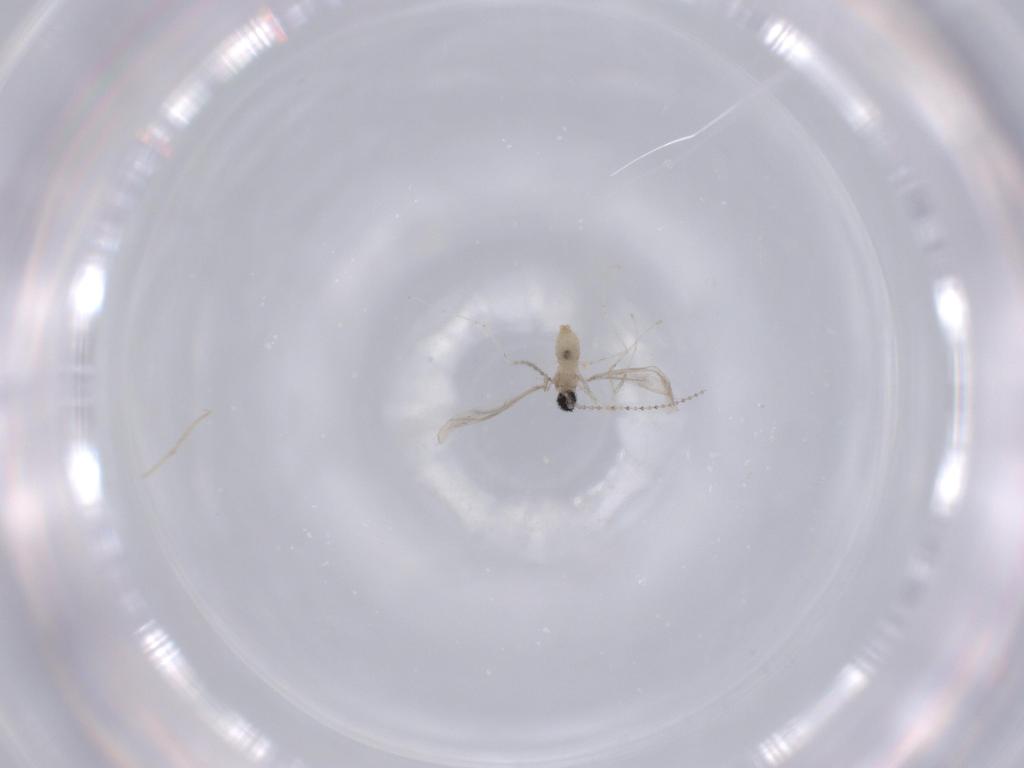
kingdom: Animalia
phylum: Arthropoda
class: Insecta
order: Diptera
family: Cecidomyiidae
